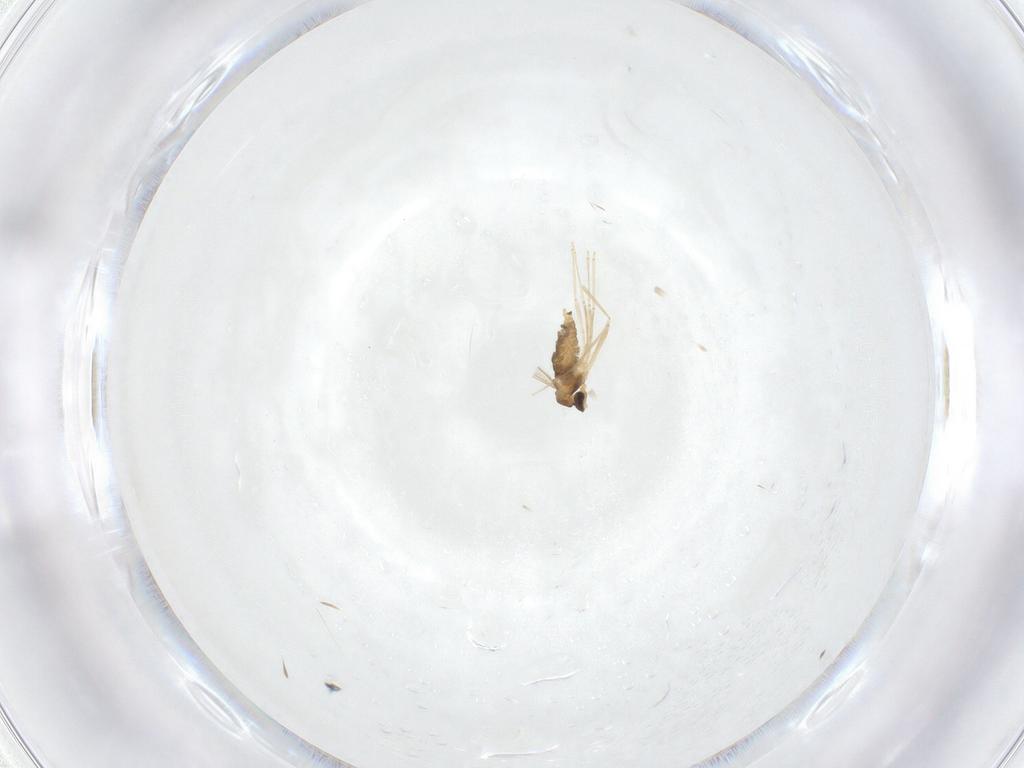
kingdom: Animalia
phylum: Arthropoda
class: Insecta
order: Diptera
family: Cecidomyiidae
